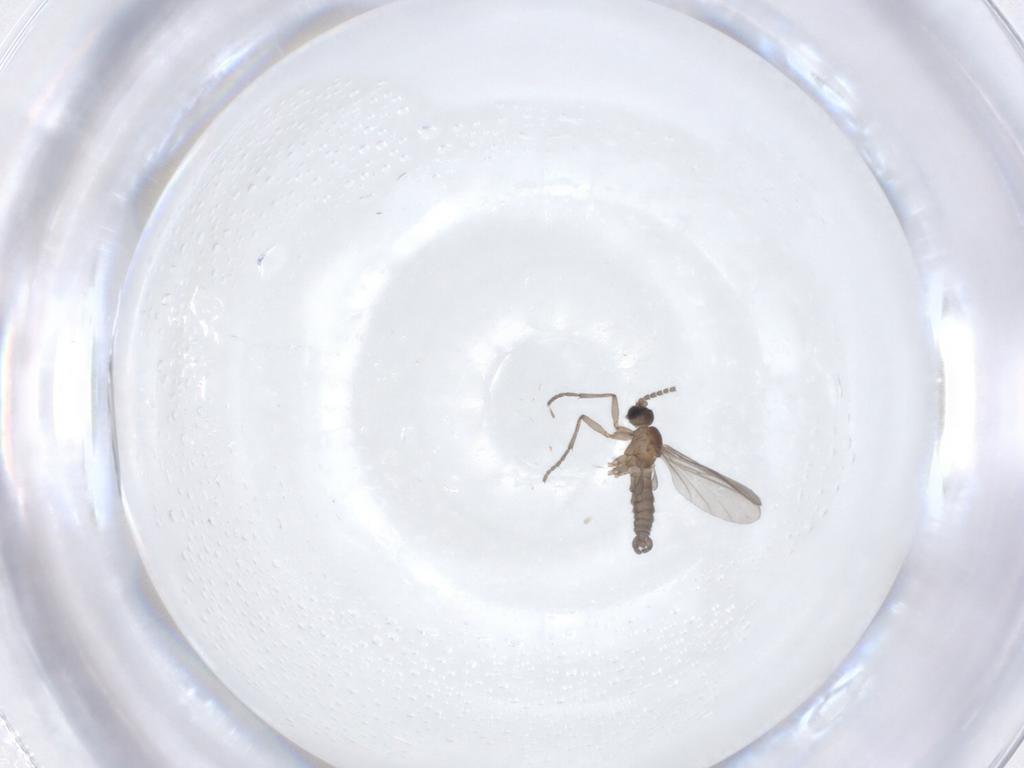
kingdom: Animalia
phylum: Arthropoda
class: Insecta
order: Diptera
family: Sciaridae
